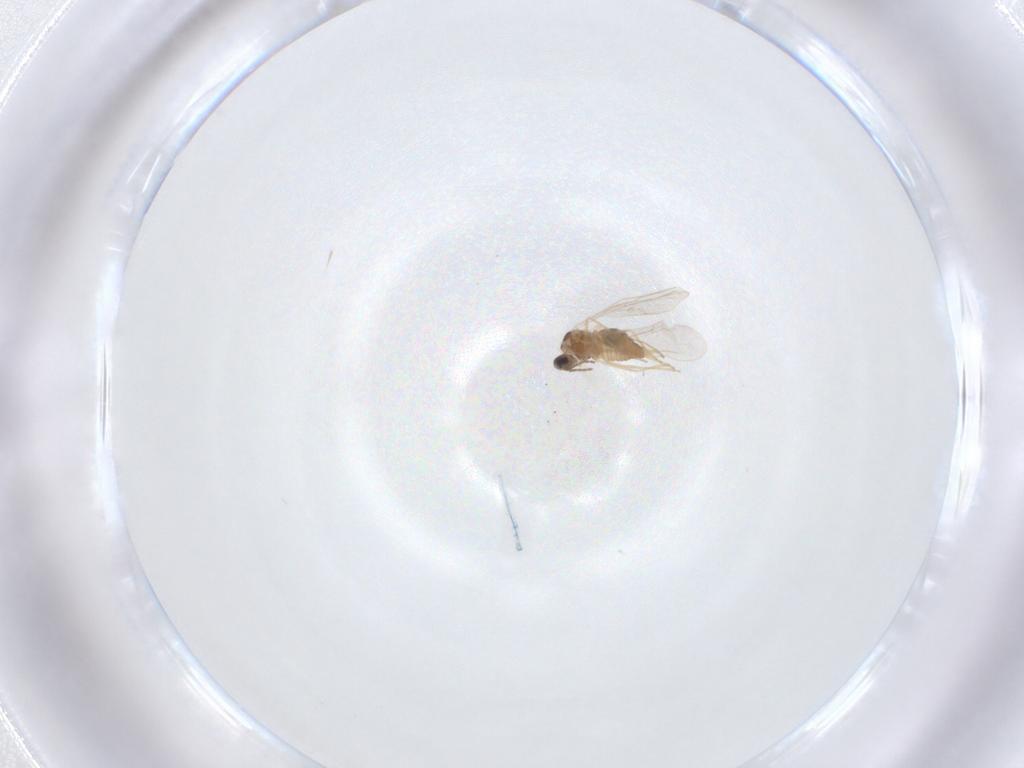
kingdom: Animalia
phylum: Arthropoda
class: Insecta
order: Diptera
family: Cecidomyiidae
